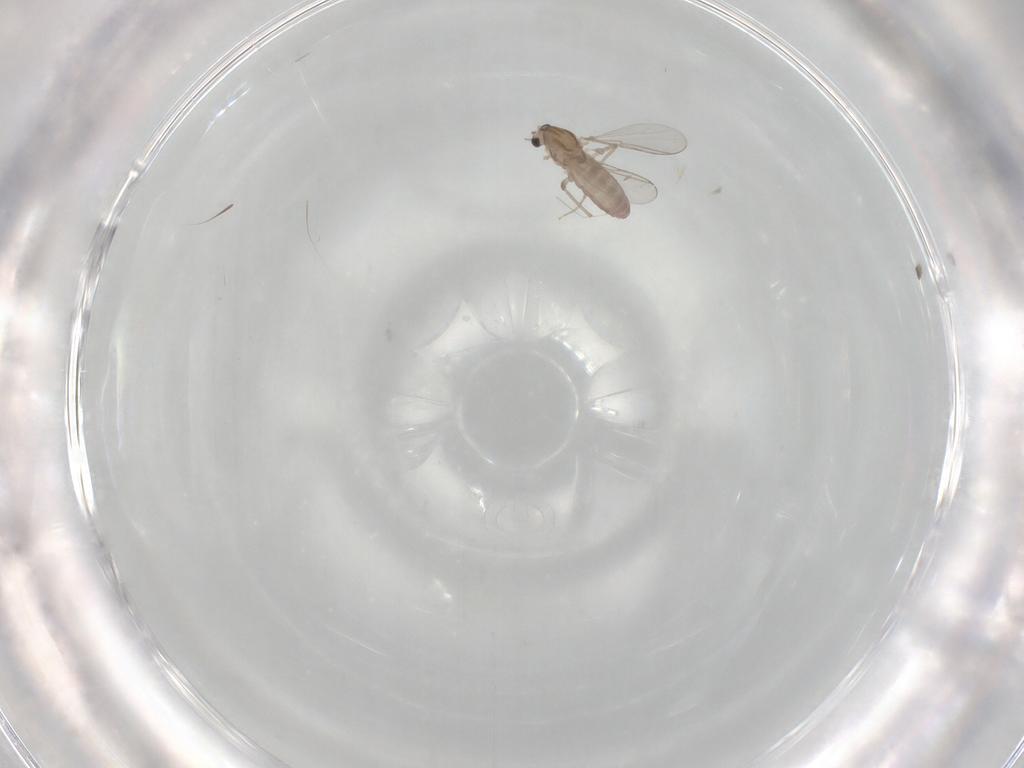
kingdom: Animalia
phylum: Arthropoda
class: Insecta
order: Diptera
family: Chironomidae
